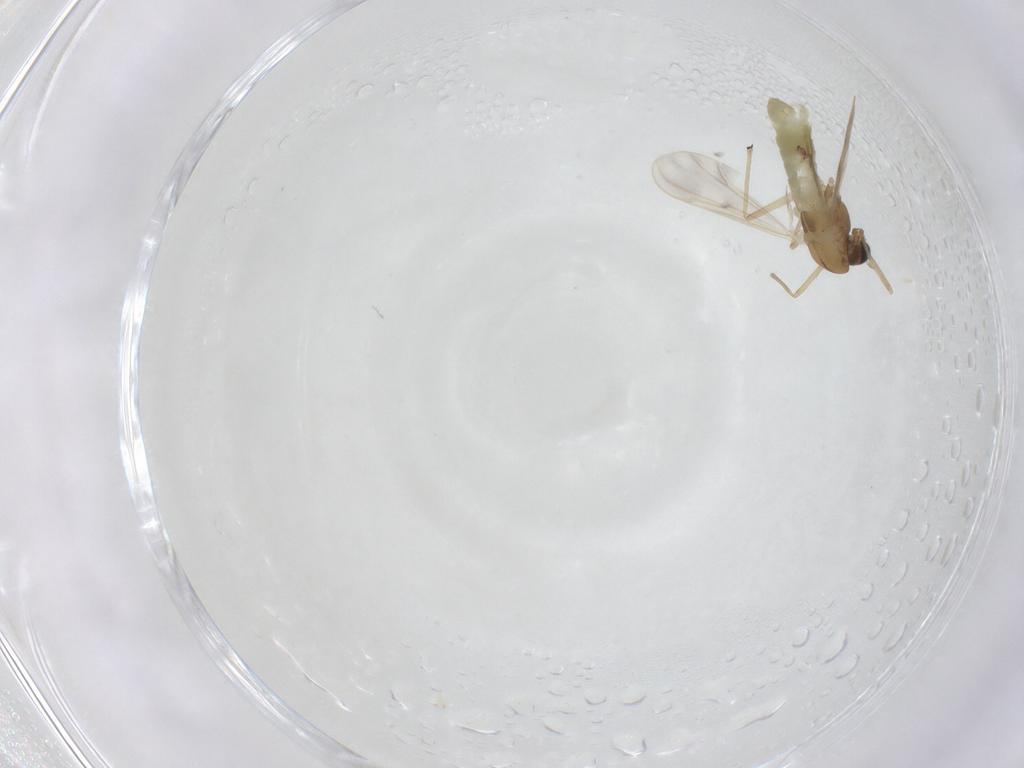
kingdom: Animalia
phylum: Arthropoda
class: Insecta
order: Diptera
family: Chironomidae
